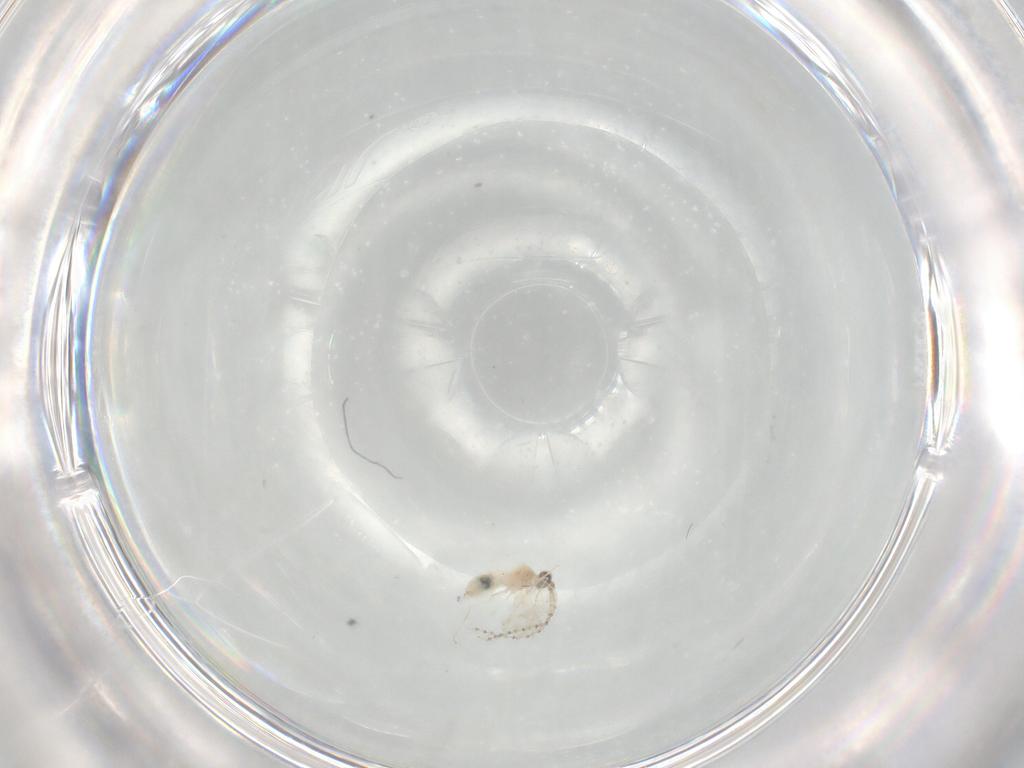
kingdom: Animalia
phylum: Arthropoda
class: Insecta
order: Diptera
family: Cecidomyiidae
